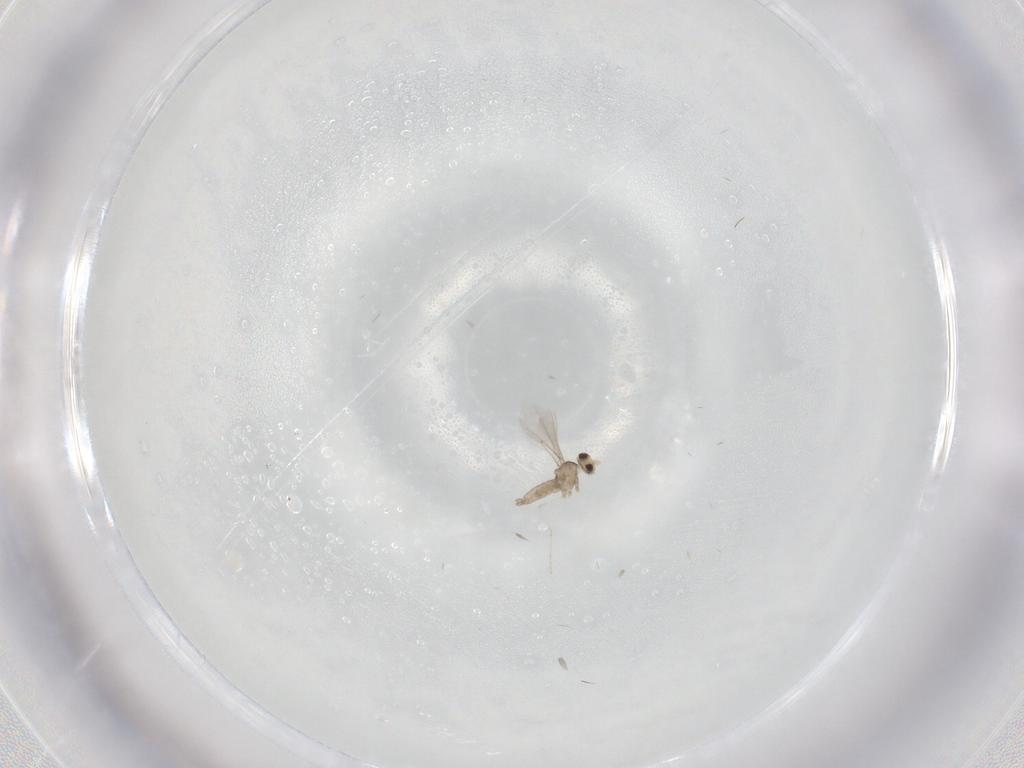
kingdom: Animalia
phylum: Arthropoda
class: Insecta
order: Diptera
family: Cecidomyiidae
